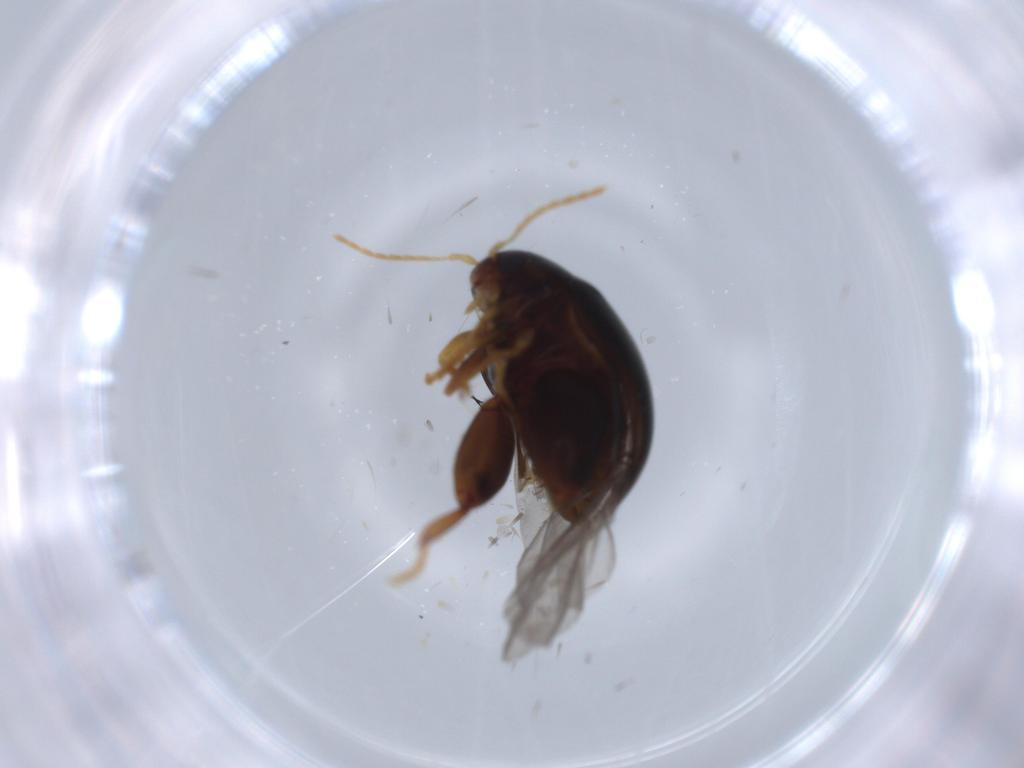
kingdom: Animalia
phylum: Arthropoda
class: Insecta
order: Coleoptera
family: Chrysomelidae
